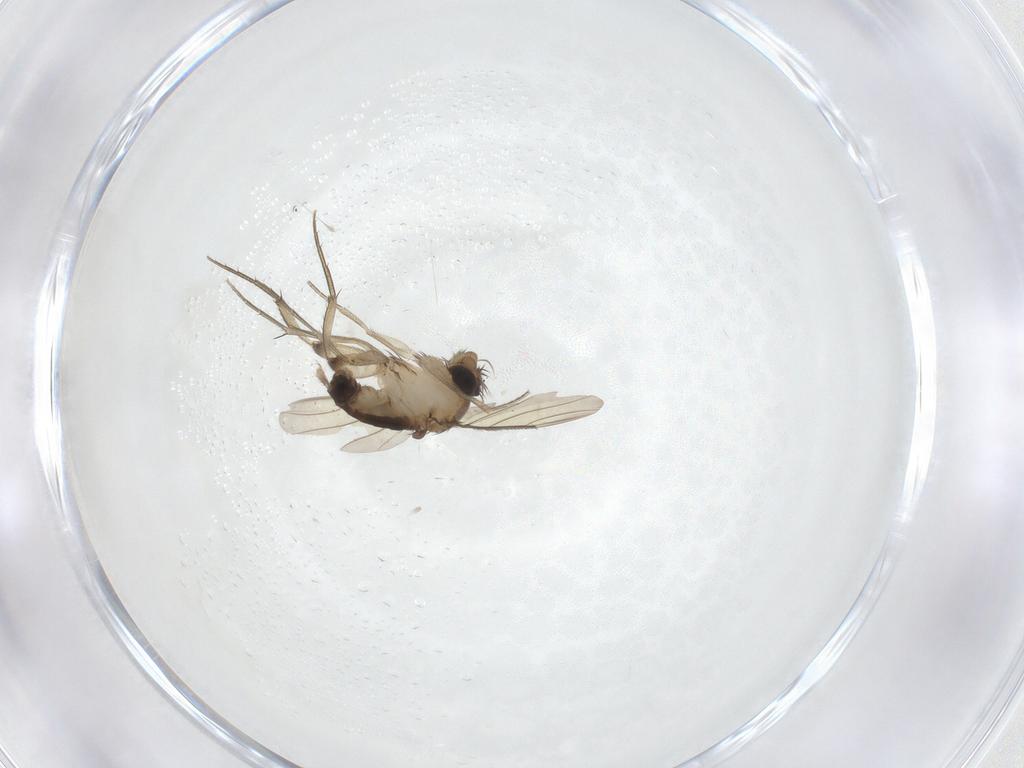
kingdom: Animalia
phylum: Arthropoda
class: Insecta
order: Diptera
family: Phoridae
